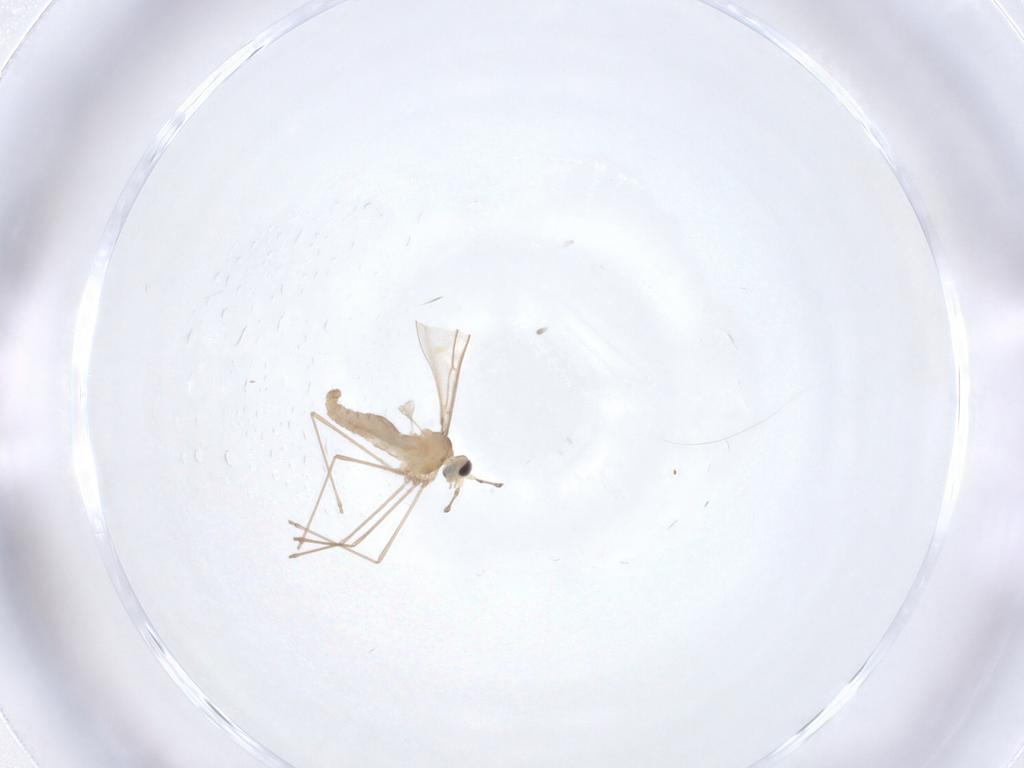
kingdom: Animalia
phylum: Arthropoda
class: Insecta
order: Diptera
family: Cecidomyiidae
